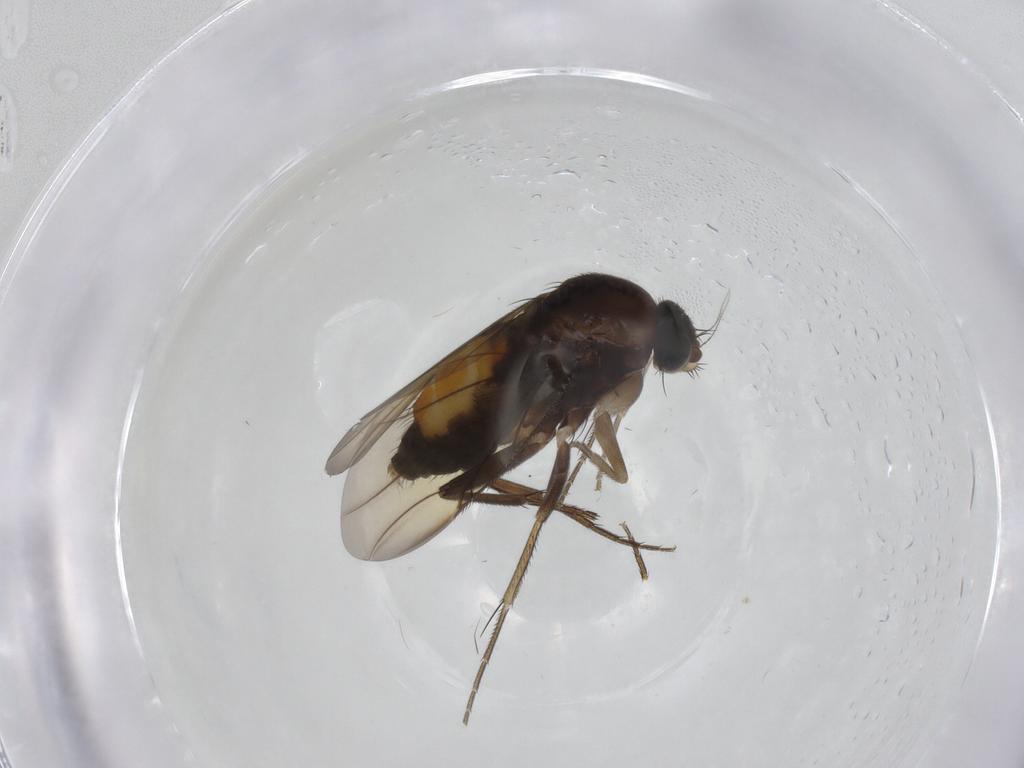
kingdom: Animalia
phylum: Arthropoda
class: Insecta
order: Diptera
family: Phoridae
